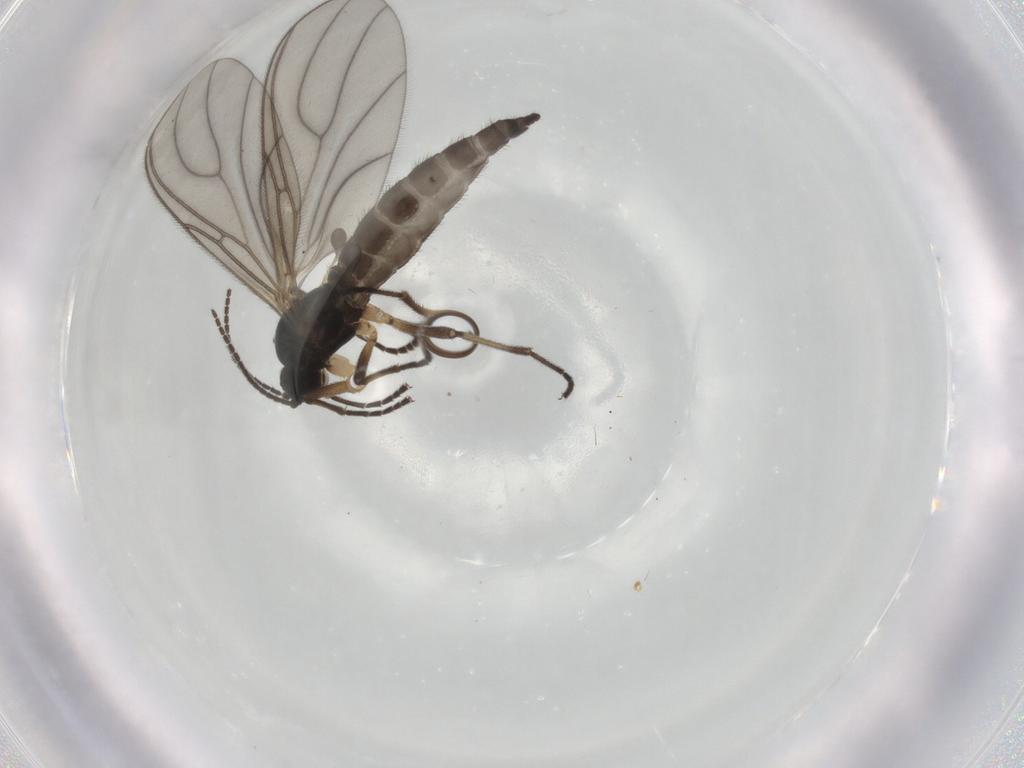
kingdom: Animalia
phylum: Arthropoda
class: Insecta
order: Diptera
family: Sciaridae
